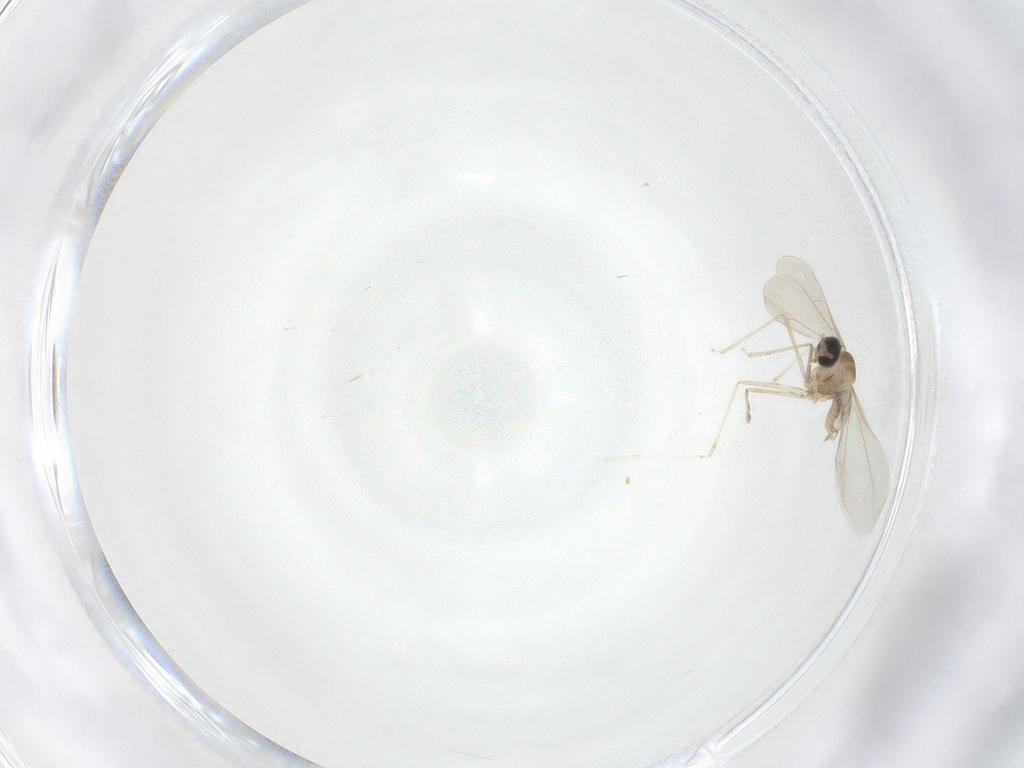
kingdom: Animalia
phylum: Arthropoda
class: Insecta
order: Diptera
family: Cecidomyiidae
